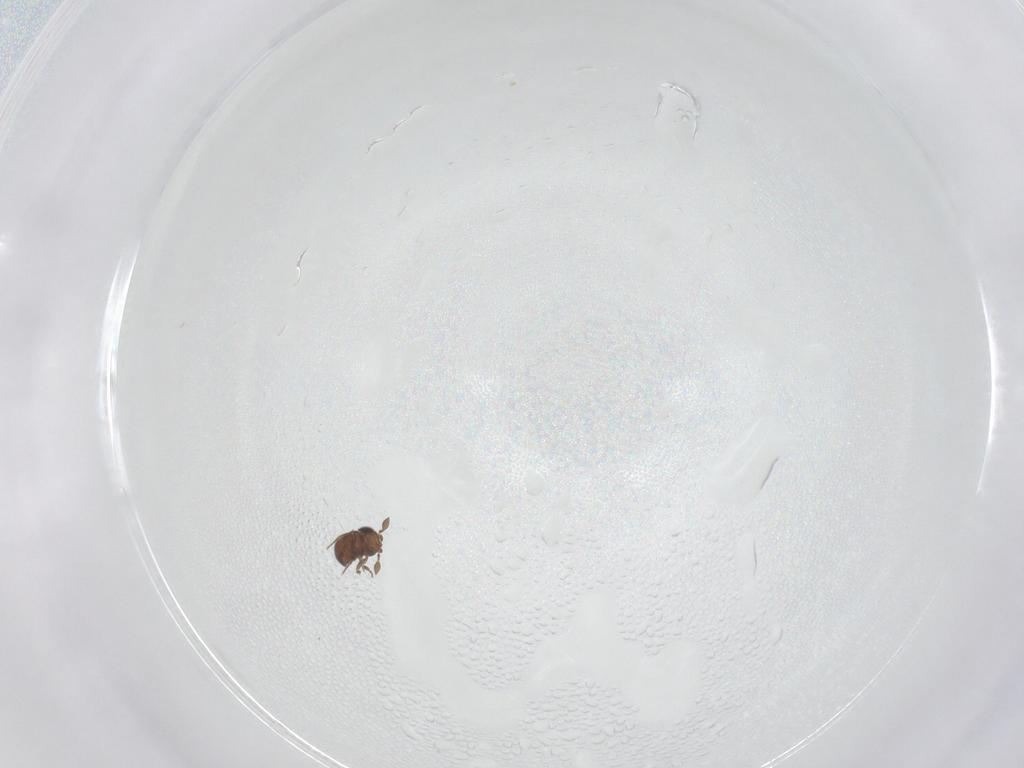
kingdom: Animalia
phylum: Arthropoda
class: Insecta
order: Hymenoptera
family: Scelionidae
